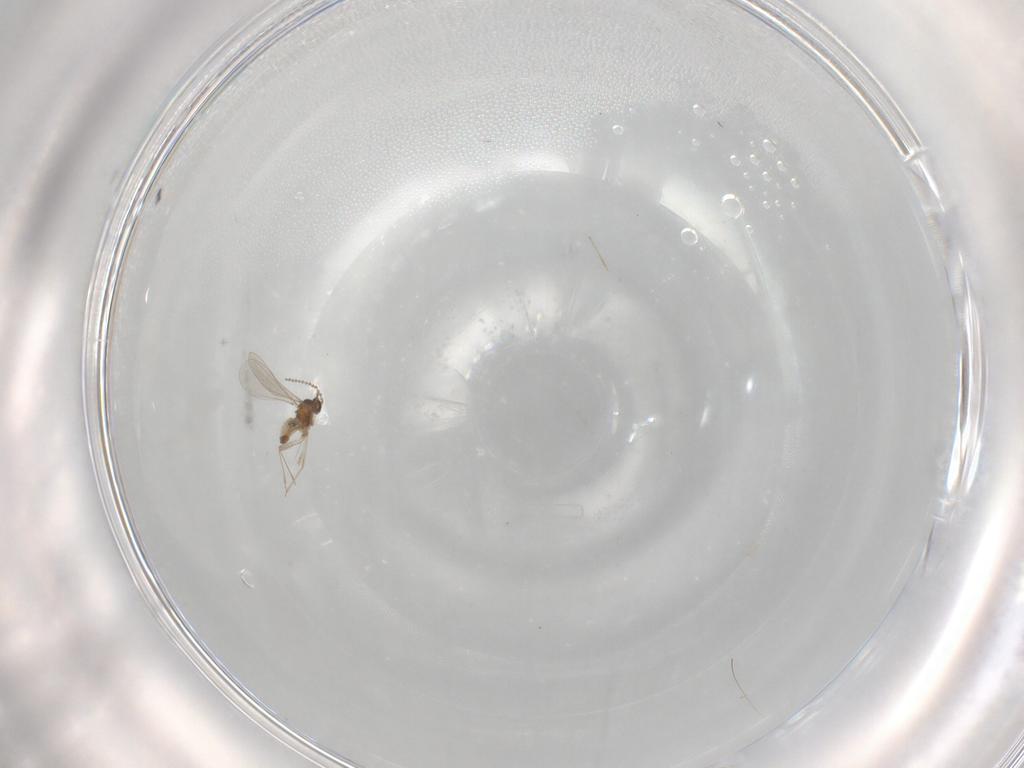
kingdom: Animalia
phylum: Arthropoda
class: Insecta
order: Diptera
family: Cecidomyiidae
